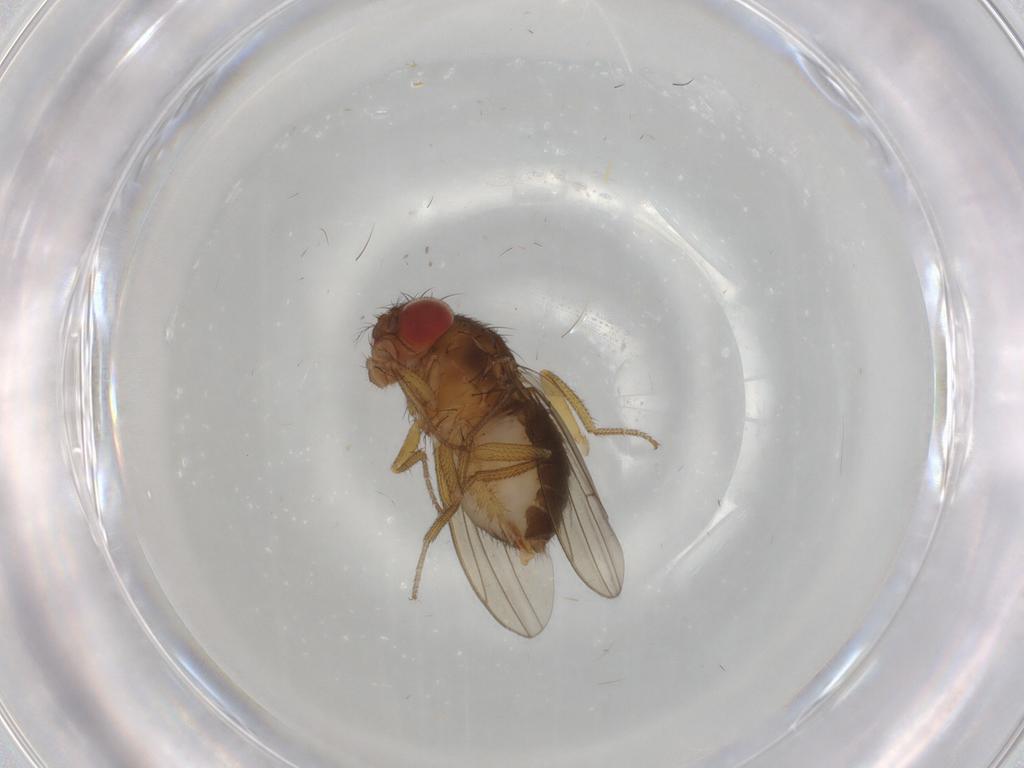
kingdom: Animalia
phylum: Arthropoda
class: Insecta
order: Diptera
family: Drosophilidae
